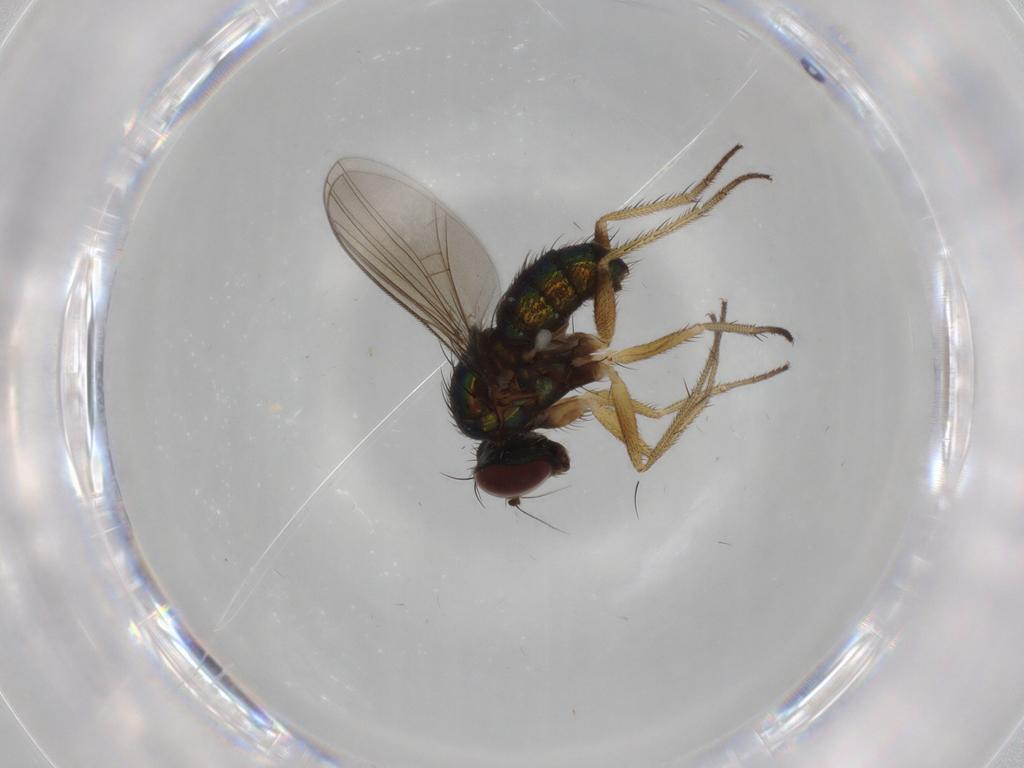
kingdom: Animalia
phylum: Arthropoda
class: Insecta
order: Diptera
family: Dolichopodidae
